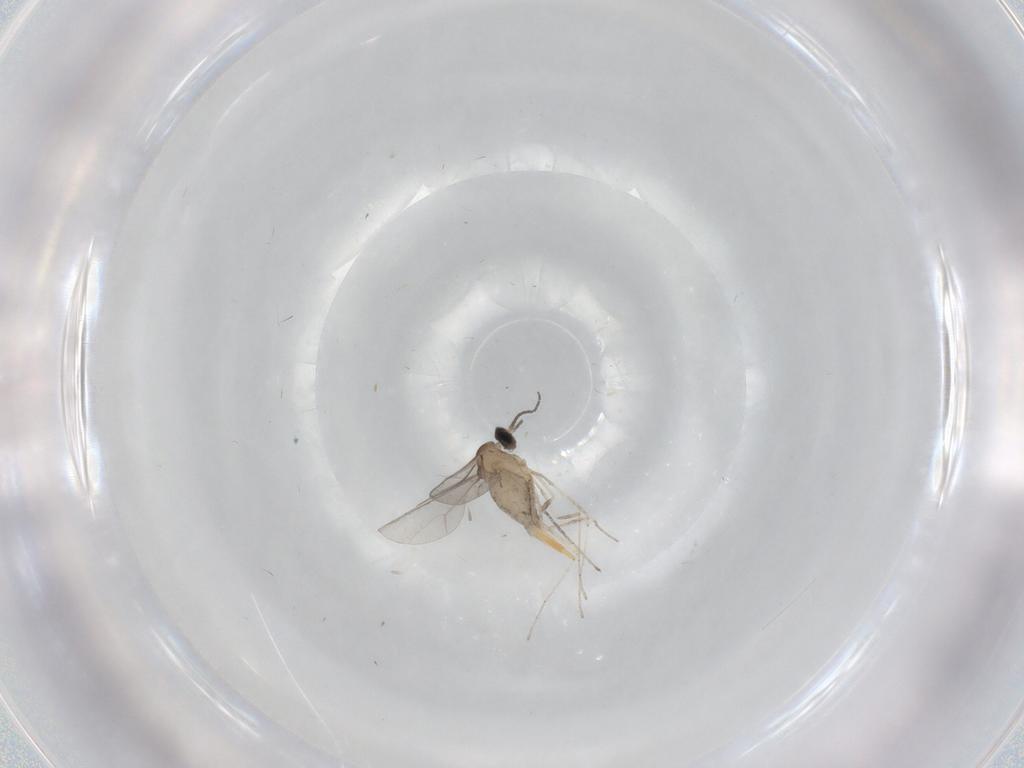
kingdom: Animalia
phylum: Arthropoda
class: Insecta
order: Diptera
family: Cecidomyiidae
